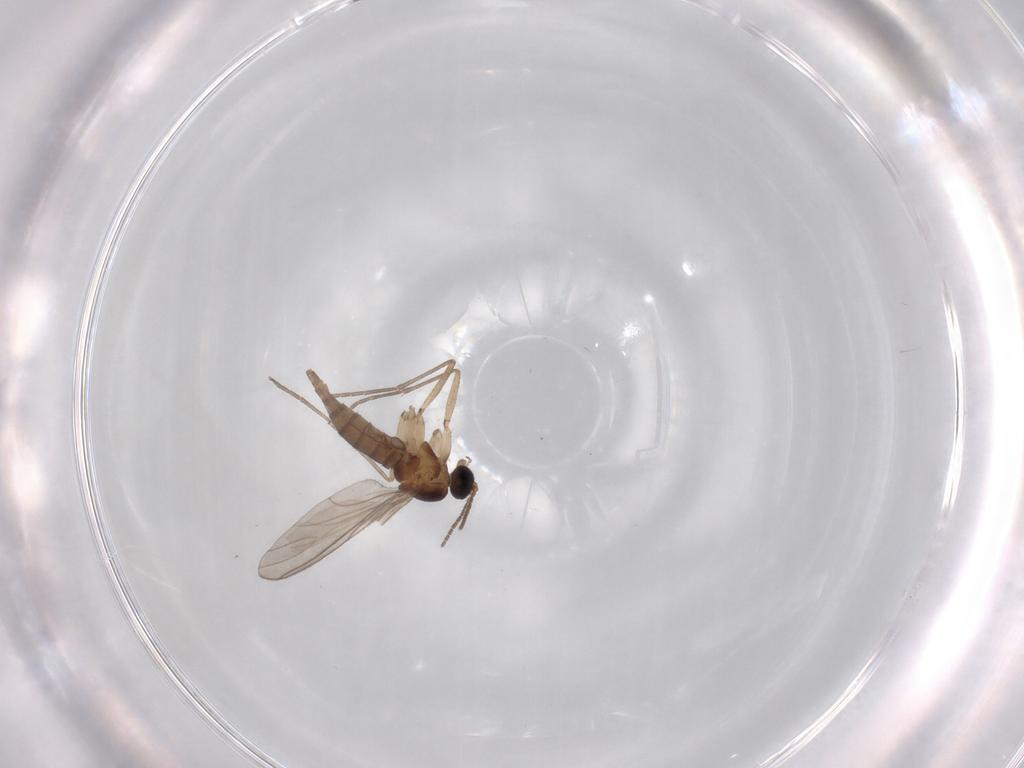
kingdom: Animalia
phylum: Arthropoda
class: Insecta
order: Diptera
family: Sciaridae
